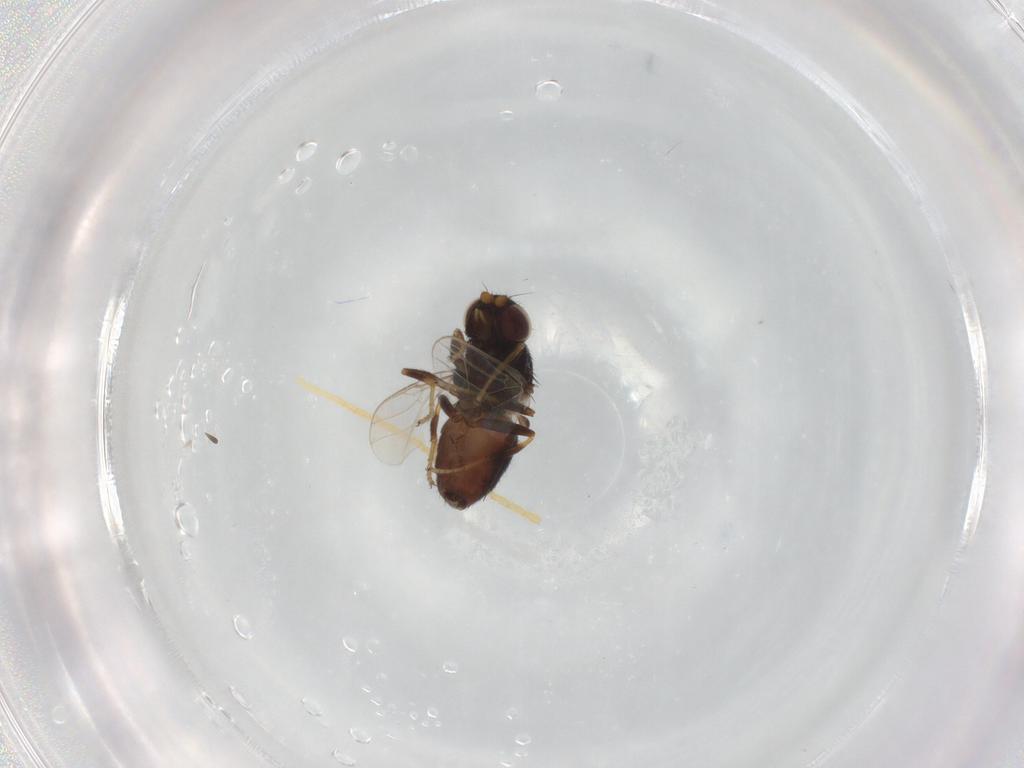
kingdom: Animalia
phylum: Arthropoda
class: Insecta
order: Diptera
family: Chloropidae
